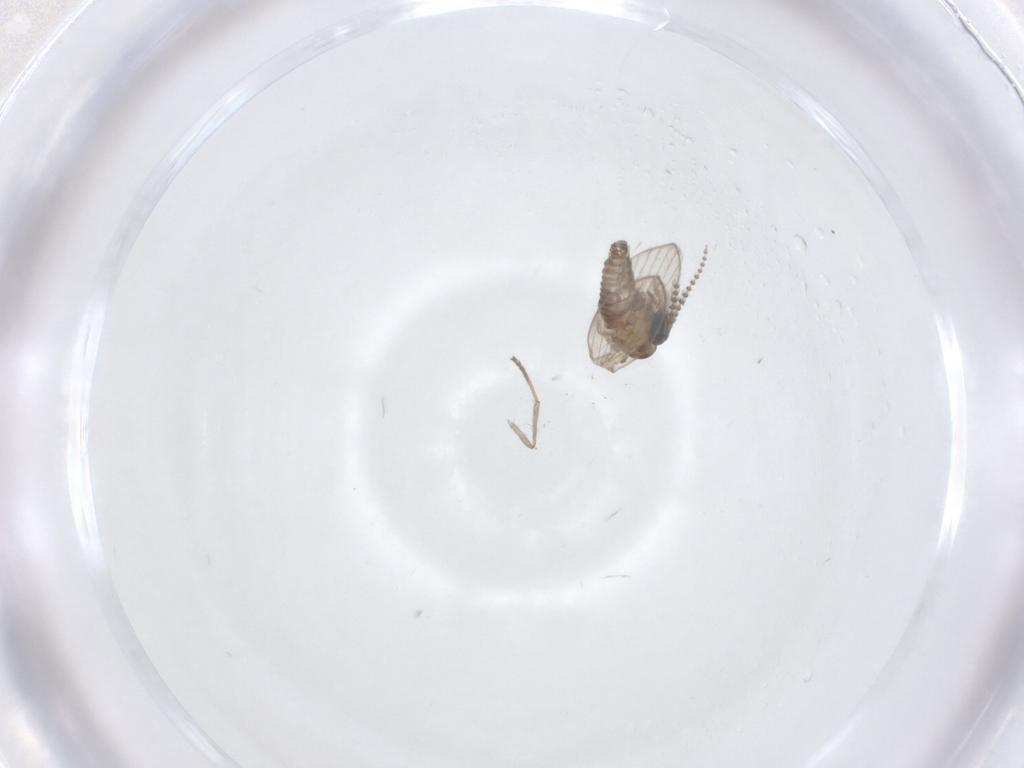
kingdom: Animalia
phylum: Arthropoda
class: Insecta
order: Diptera
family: Psychodidae
